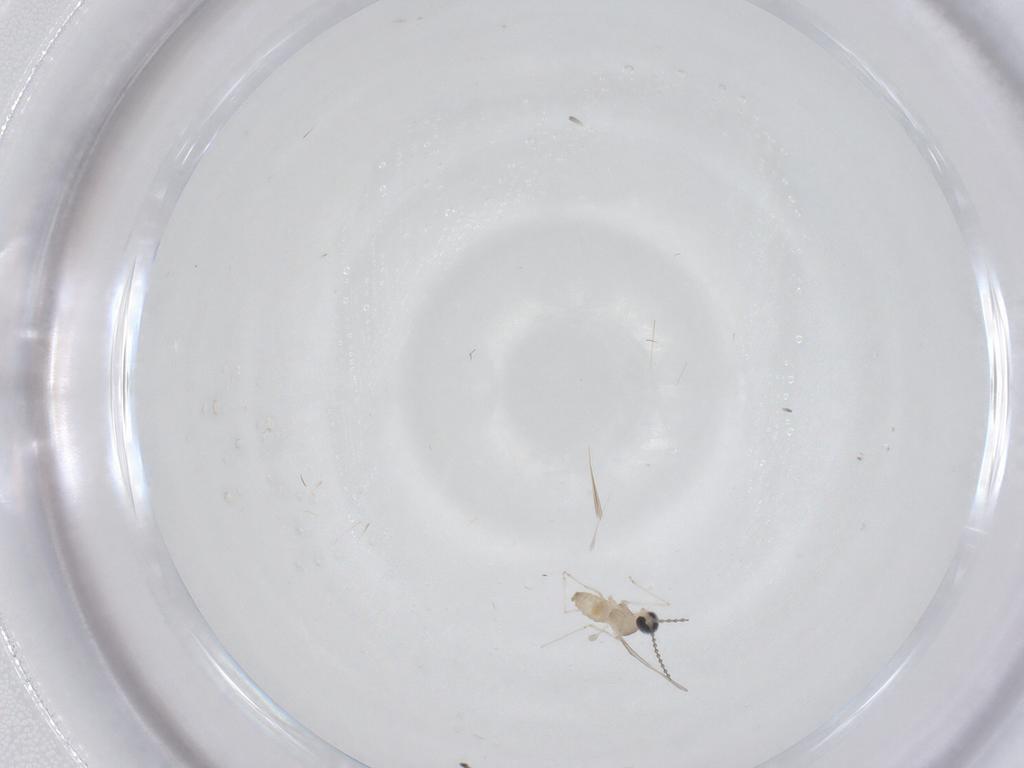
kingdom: Animalia
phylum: Arthropoda
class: Insecta
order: Diptera
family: Cecidomyiidae
